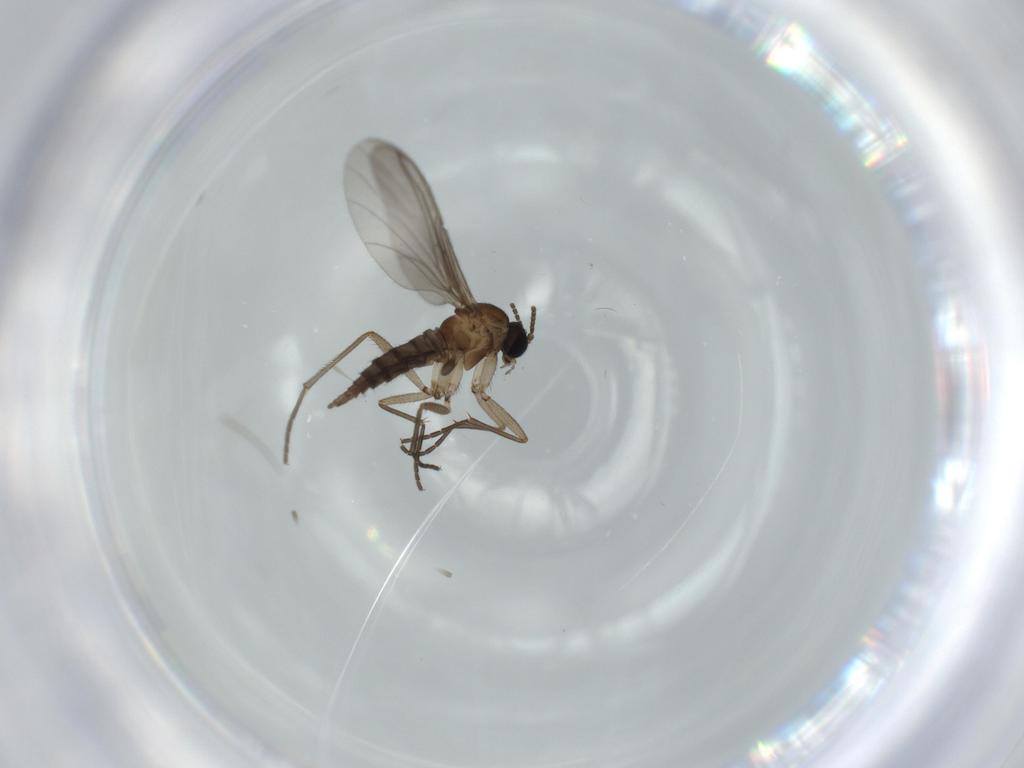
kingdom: Animalia
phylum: Arthropoda
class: Insecta
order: Diptera
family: Sciaridae
